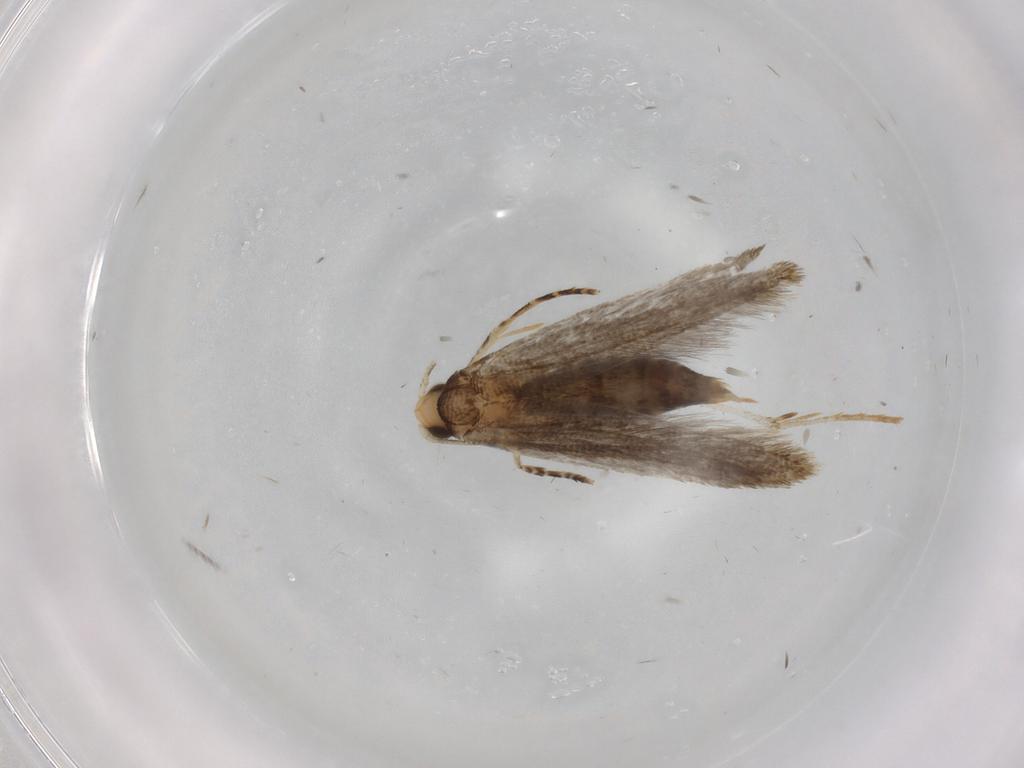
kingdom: Animalia
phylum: Arthropoda
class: Insecta
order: Lepidoptera
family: Tineidae
